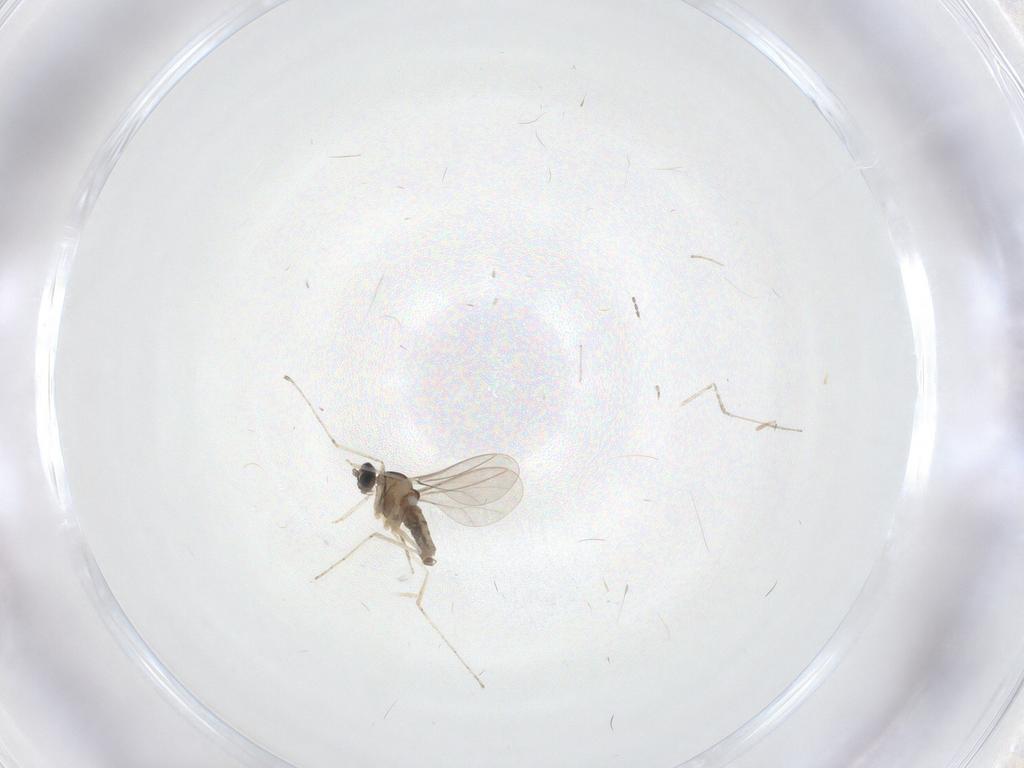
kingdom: Animalia
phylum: Arthropoda
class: Insecta
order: Diptera
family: Cecidomyiidae
